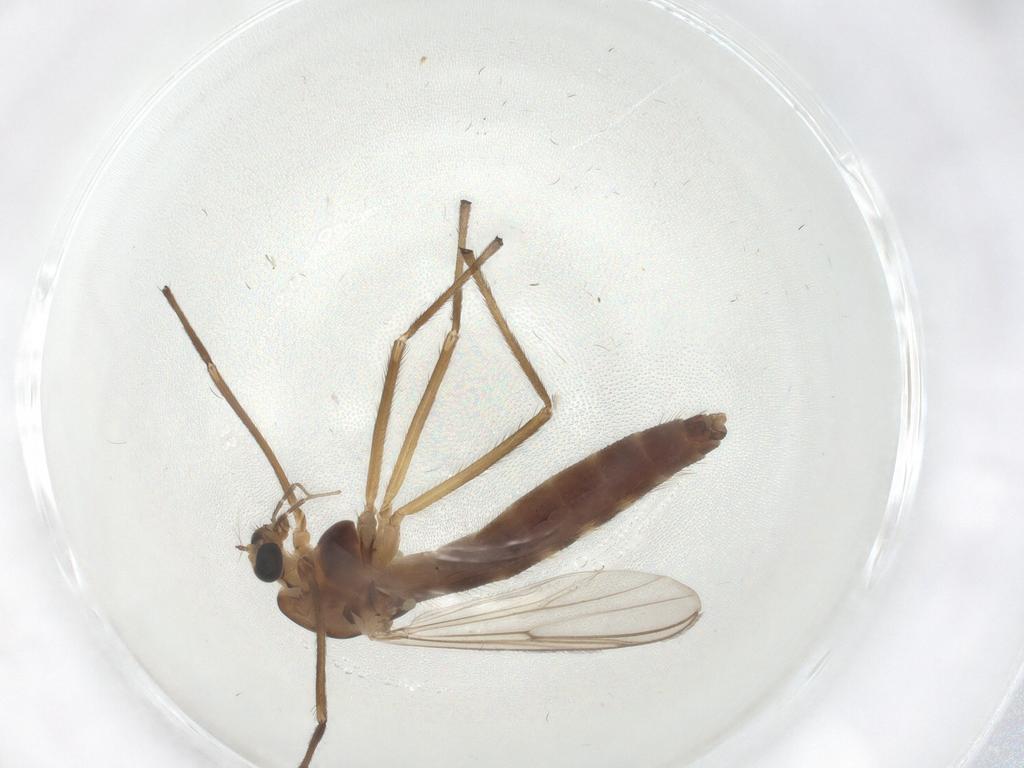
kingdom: Animalia
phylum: Arthropoda
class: Insecta
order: Diptera
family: Chironomidae
